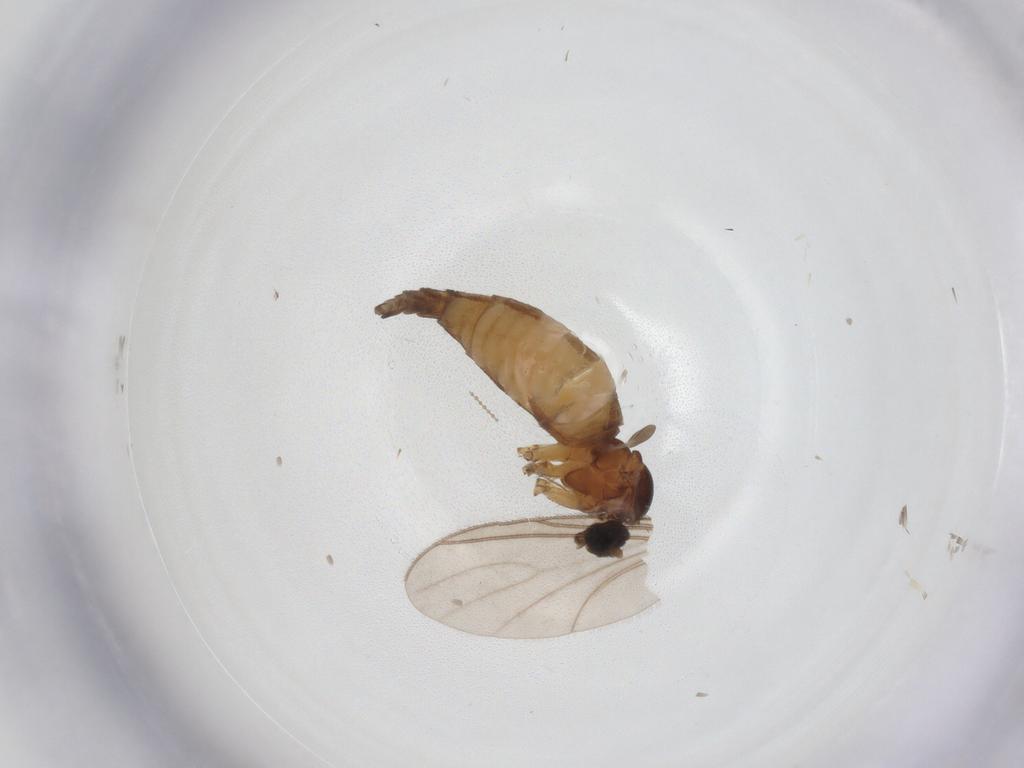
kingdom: Animalia
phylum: Arthropoda
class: Insecta
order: Diptera
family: Sciaridae
